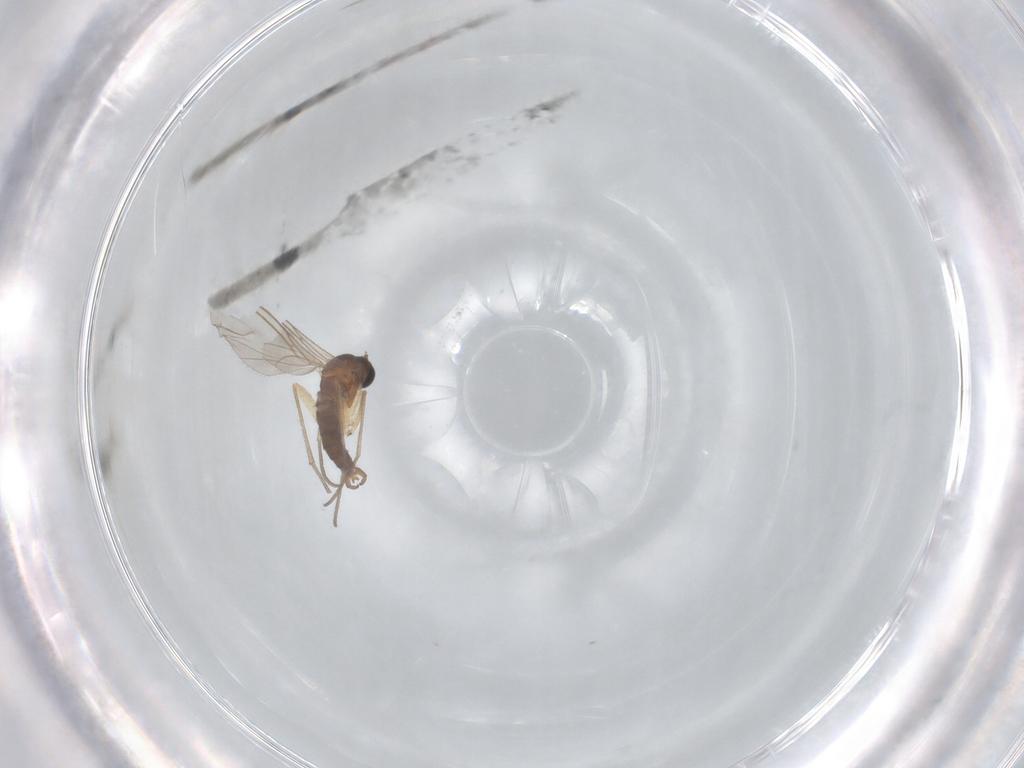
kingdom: Animalia
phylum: Arthropoda
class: Insecta
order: Diptera
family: Sciaridae
